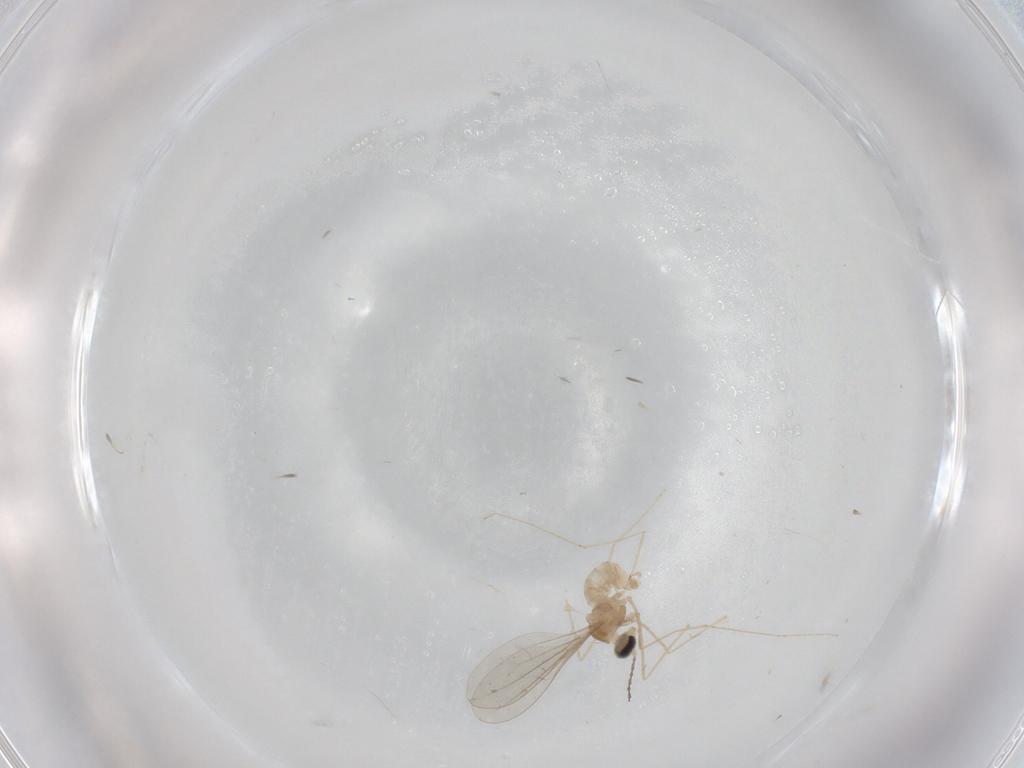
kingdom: Animalia
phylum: Arthropoda
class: Insecta
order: Diptera
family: Cecidomyiidae
